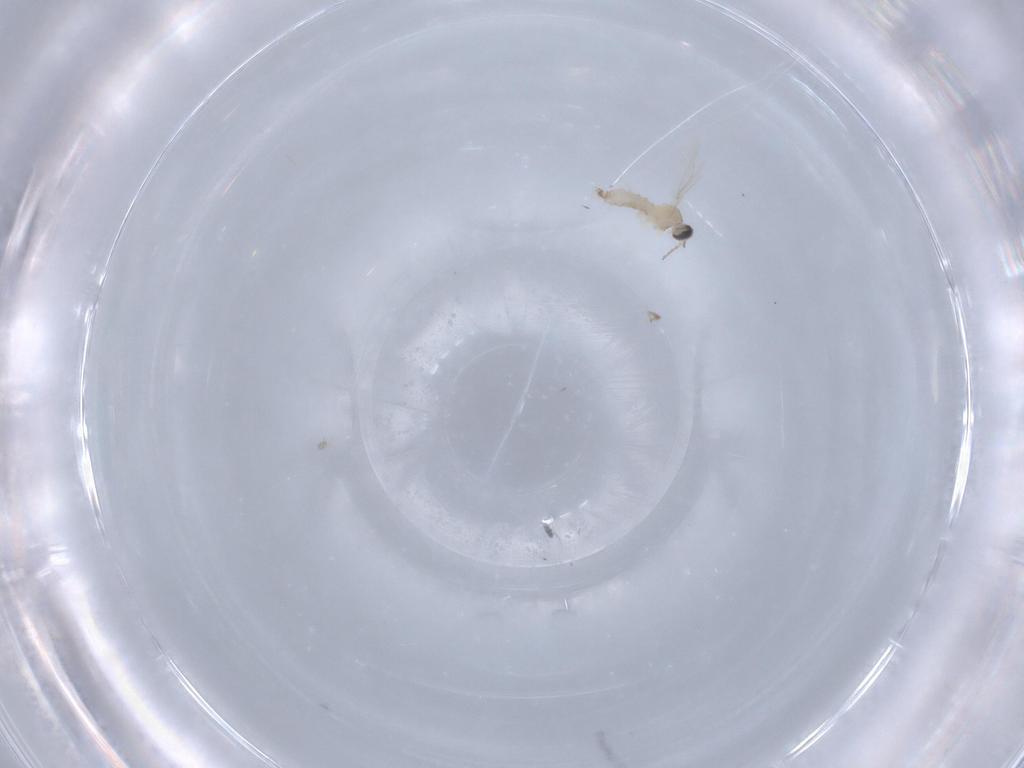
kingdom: Animalia
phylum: Arthropoda
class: Insecta
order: Diptera
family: Cecidomyiidae
